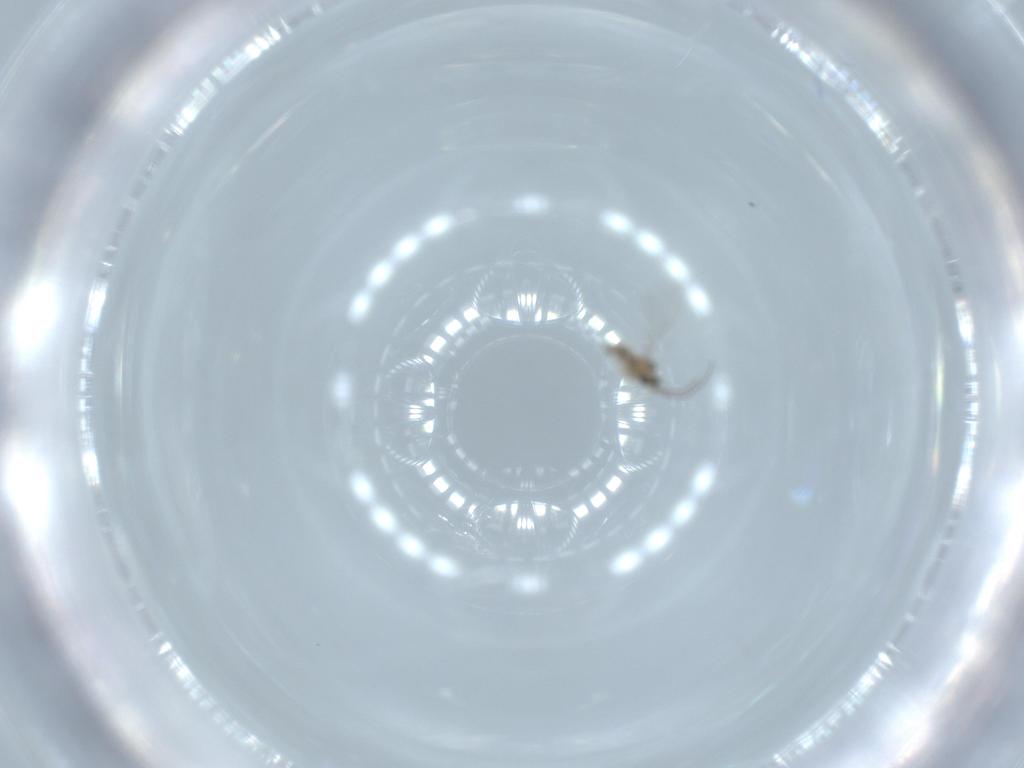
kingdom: Animalia
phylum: Arthropoda
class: Insecta
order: Diptera
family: Cecidomyiidae
